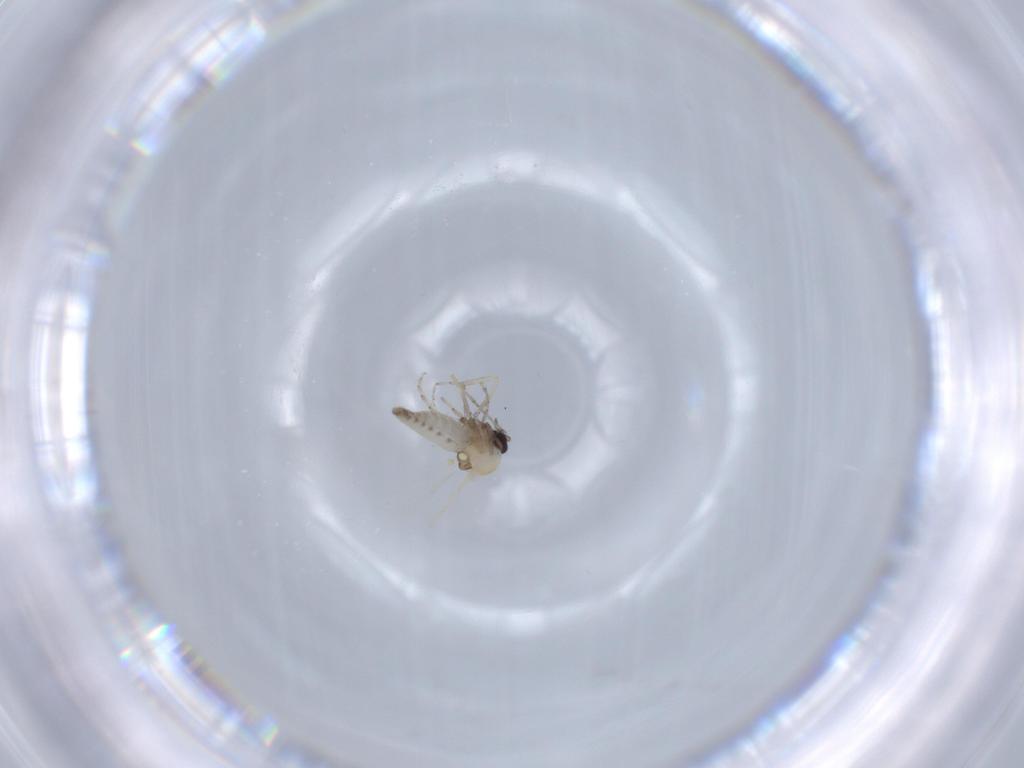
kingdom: Animalia
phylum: Arthropoda
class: Insecta
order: Diptera
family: Ceratopogonidae
